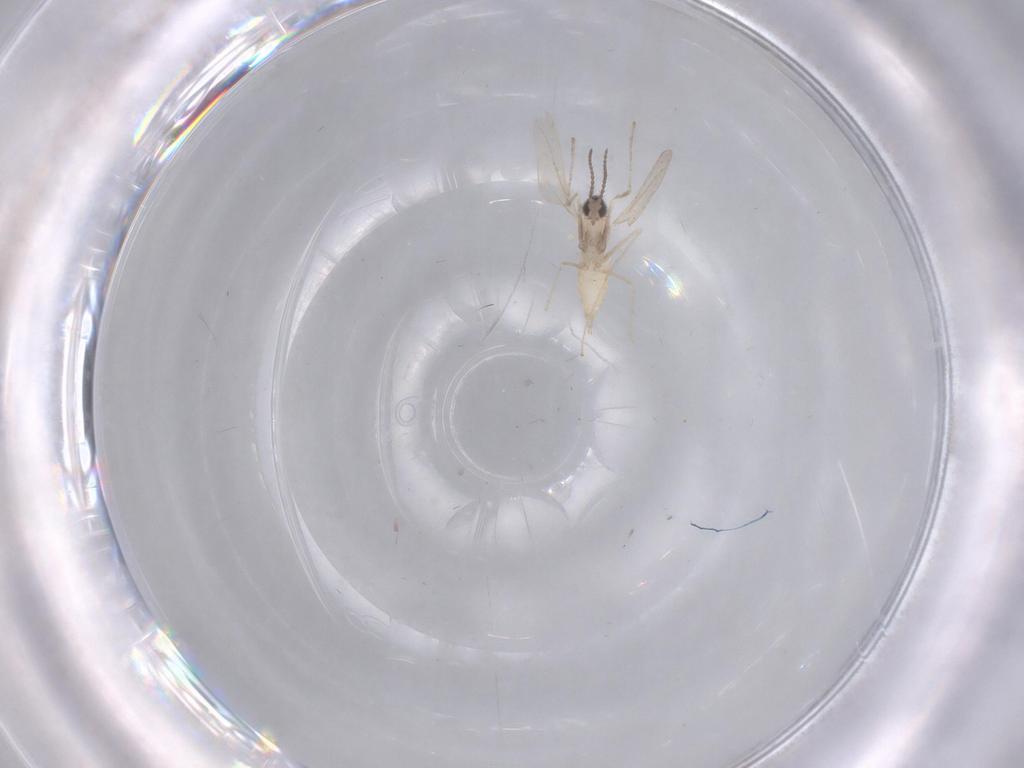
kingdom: Animalia
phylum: Arthropoda
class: Insecta
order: Diptera
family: Cecidomyiidae
